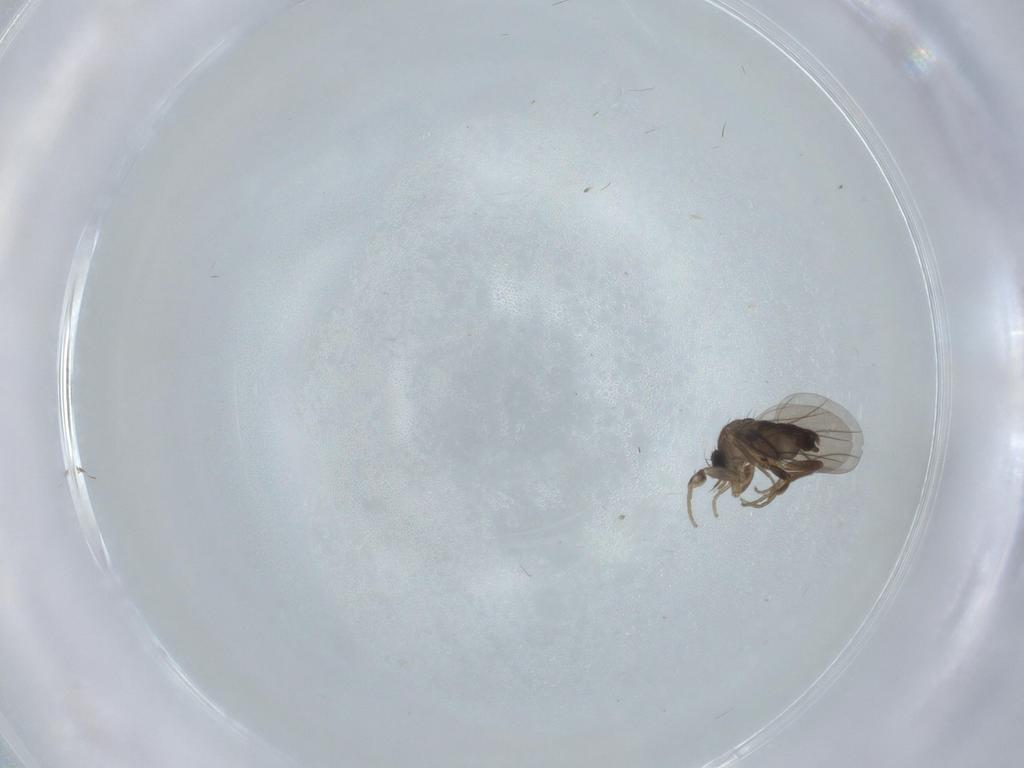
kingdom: Animalia
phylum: Arthropoda
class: Insecta
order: Diptera
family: Phoridae
